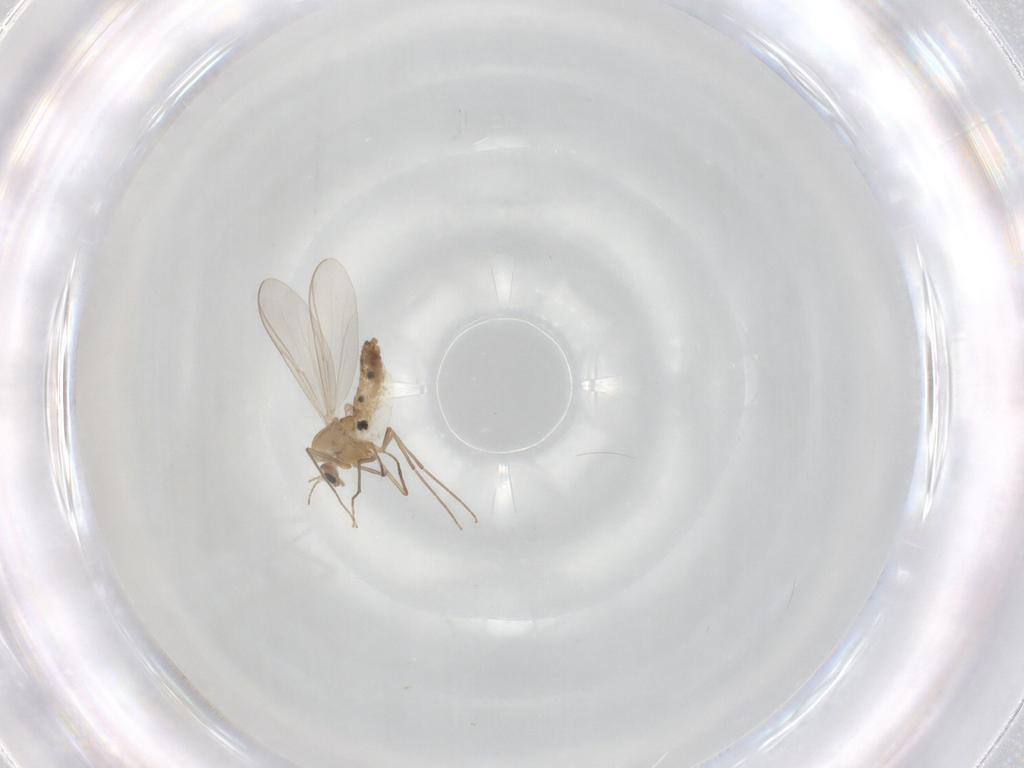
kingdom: Animalia
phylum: Arthropoda
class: Insecta
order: Diptera
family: Chironomidae
